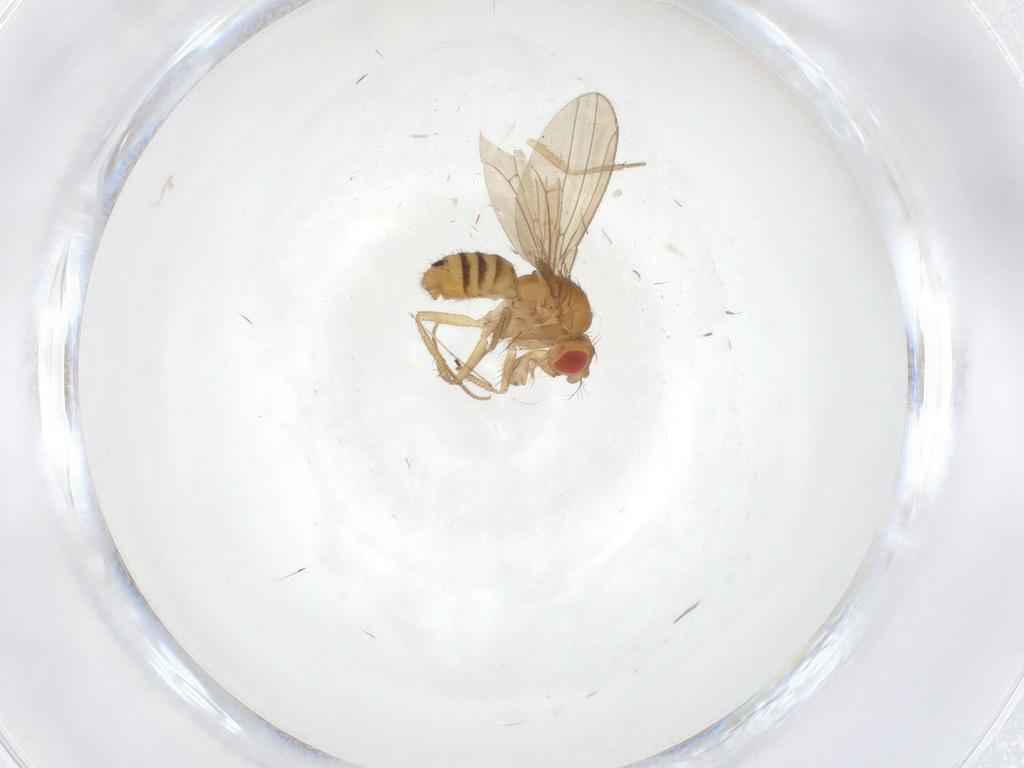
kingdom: Animalia
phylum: Arthropoda
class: Insecta
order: Diptera
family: Drosophilidae
